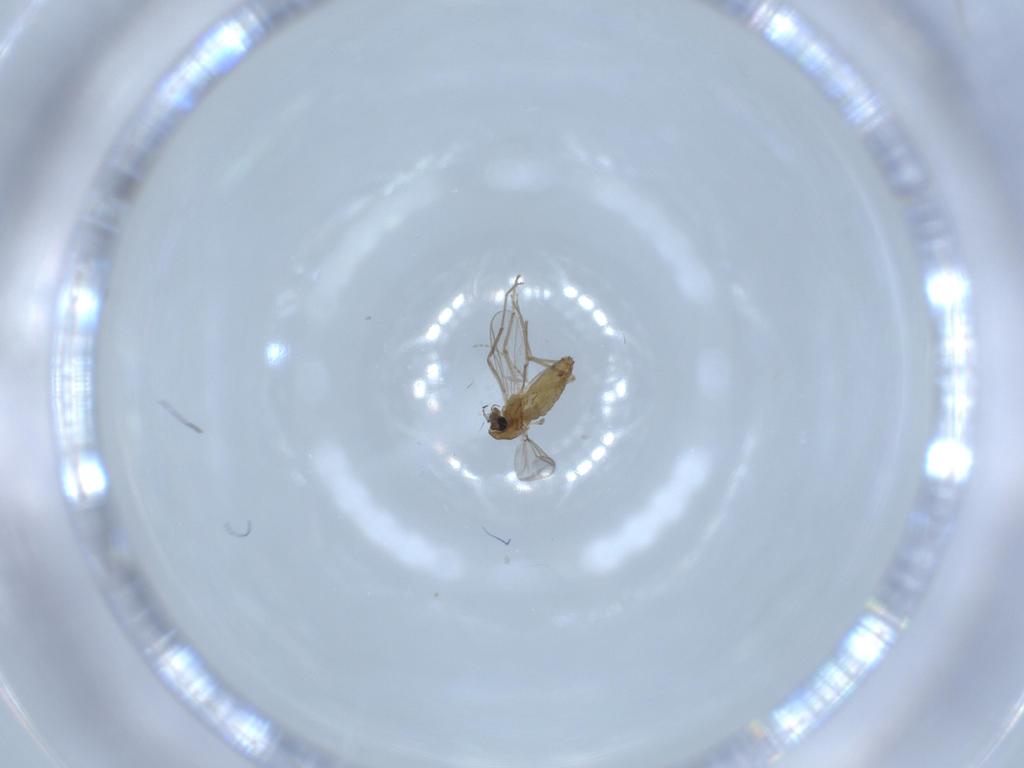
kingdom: Animalia
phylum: Arthropoda
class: Insecta
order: Diptera
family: Chironomidae
